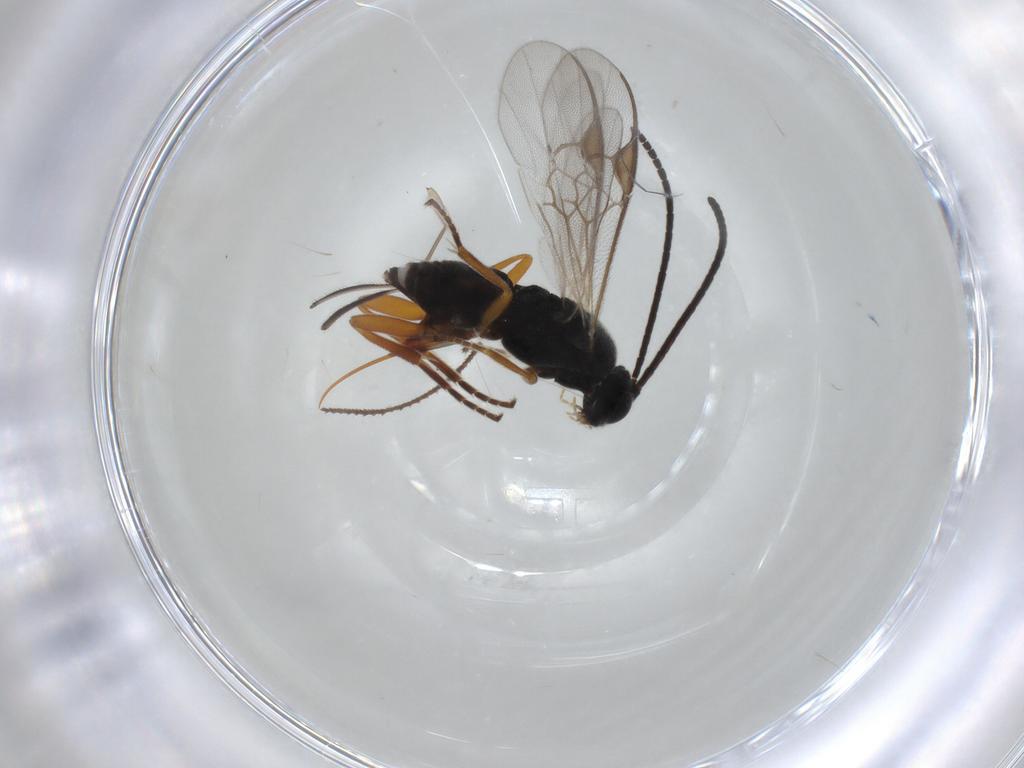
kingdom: Animalia
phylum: Arthropoda
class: Insecta
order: Hymenoptera
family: Braconidae
